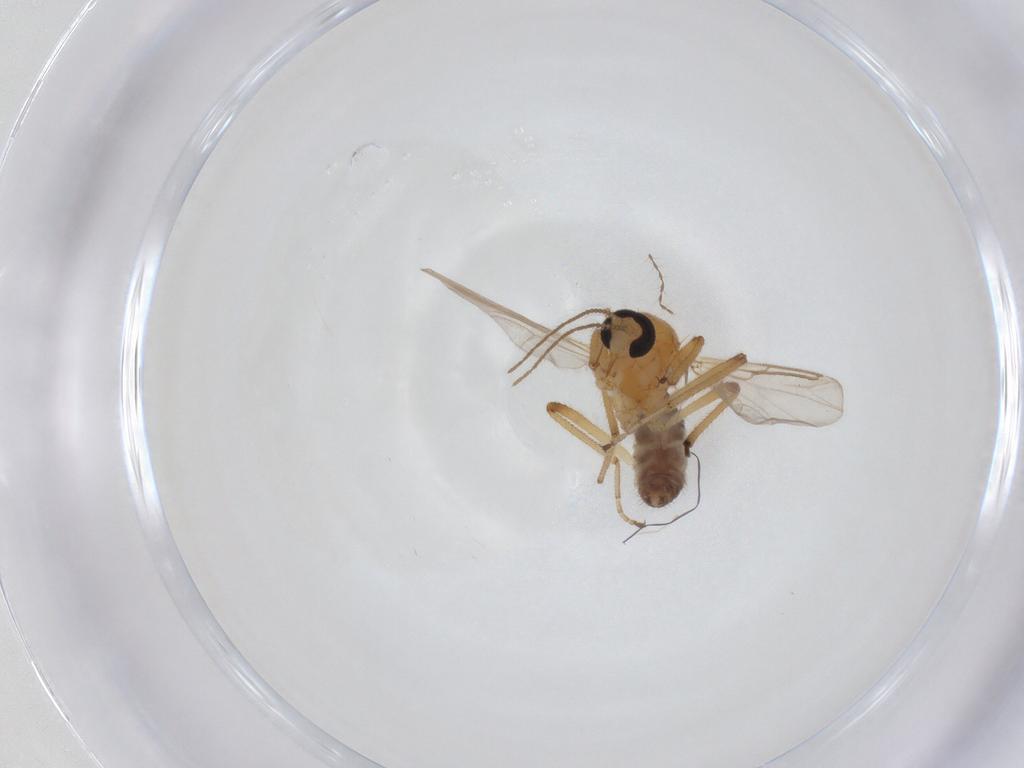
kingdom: Animalia
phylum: Arthropoda
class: Insecta
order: Diptera
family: Ceratopogonidae
